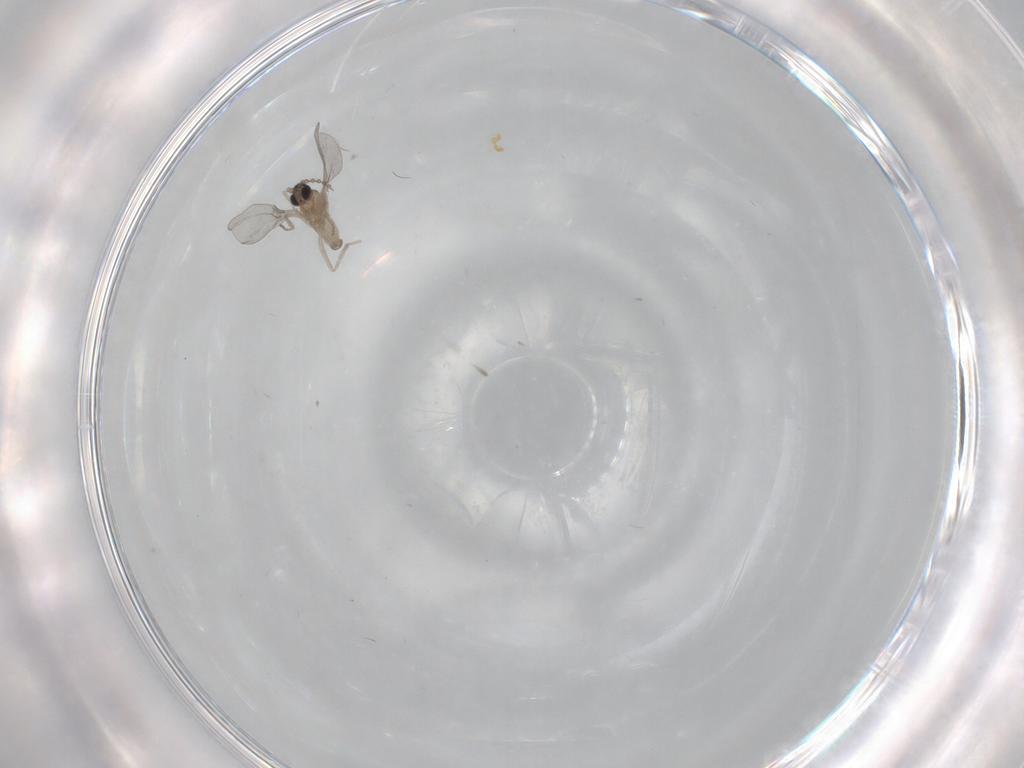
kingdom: Animalia
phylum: Arthropoda
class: Insecta
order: Diptera
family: Cecidomyiidae
